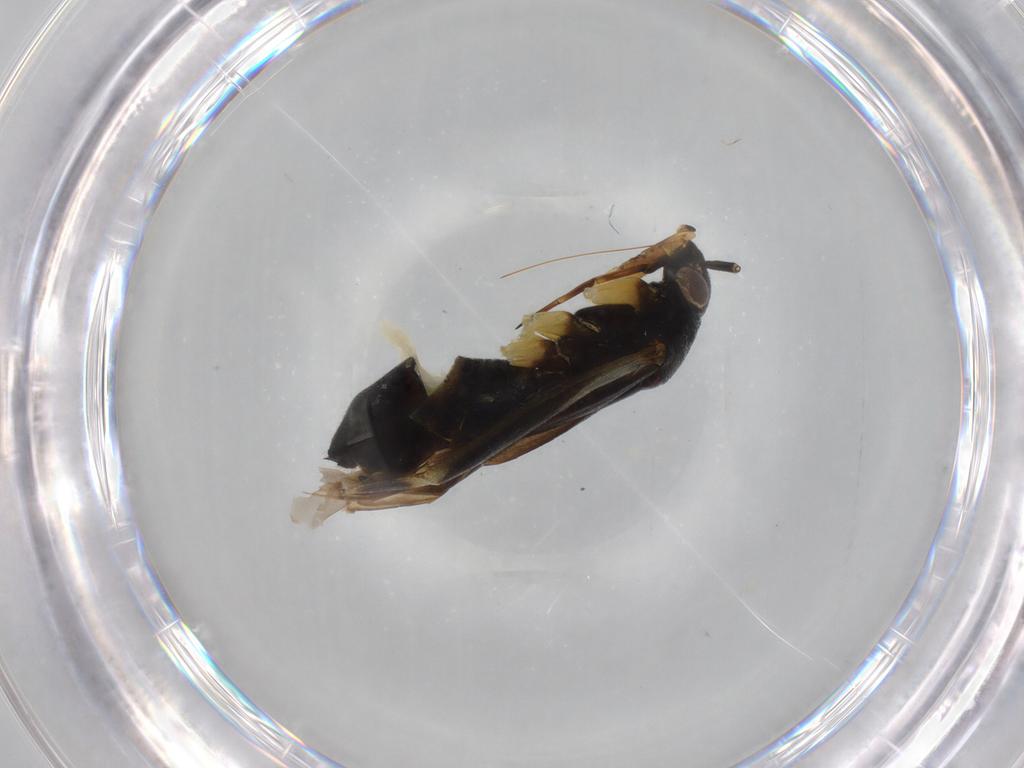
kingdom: Animalia
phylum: Arthropoda
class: Insecta
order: Hemiptera
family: Miridae
